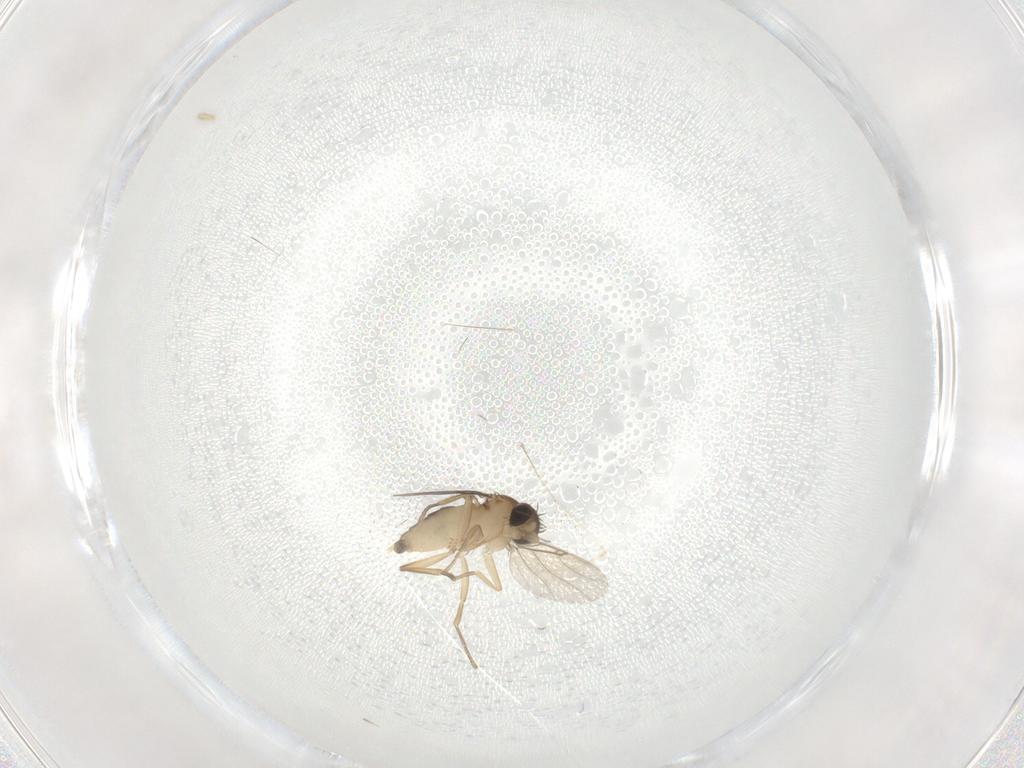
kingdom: Animalia
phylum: Arthropoda
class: Insecta
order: Diptera
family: Phoridae
